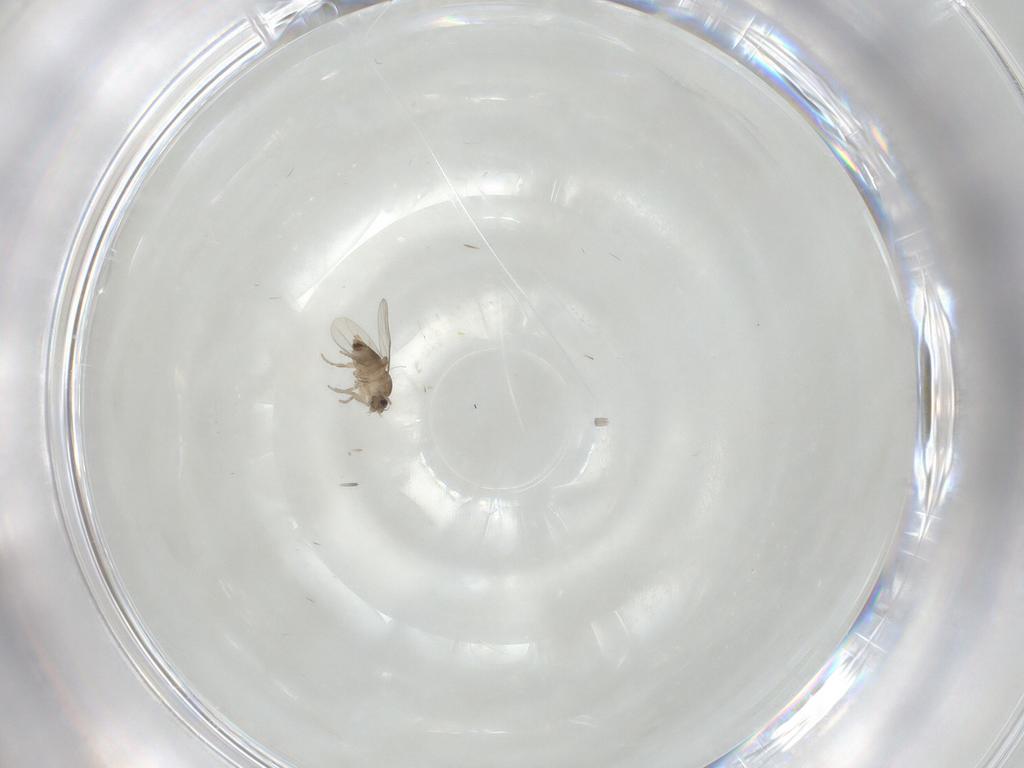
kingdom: Animalia
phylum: Arthropoda
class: Insecta
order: Diptera
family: Phoridae
